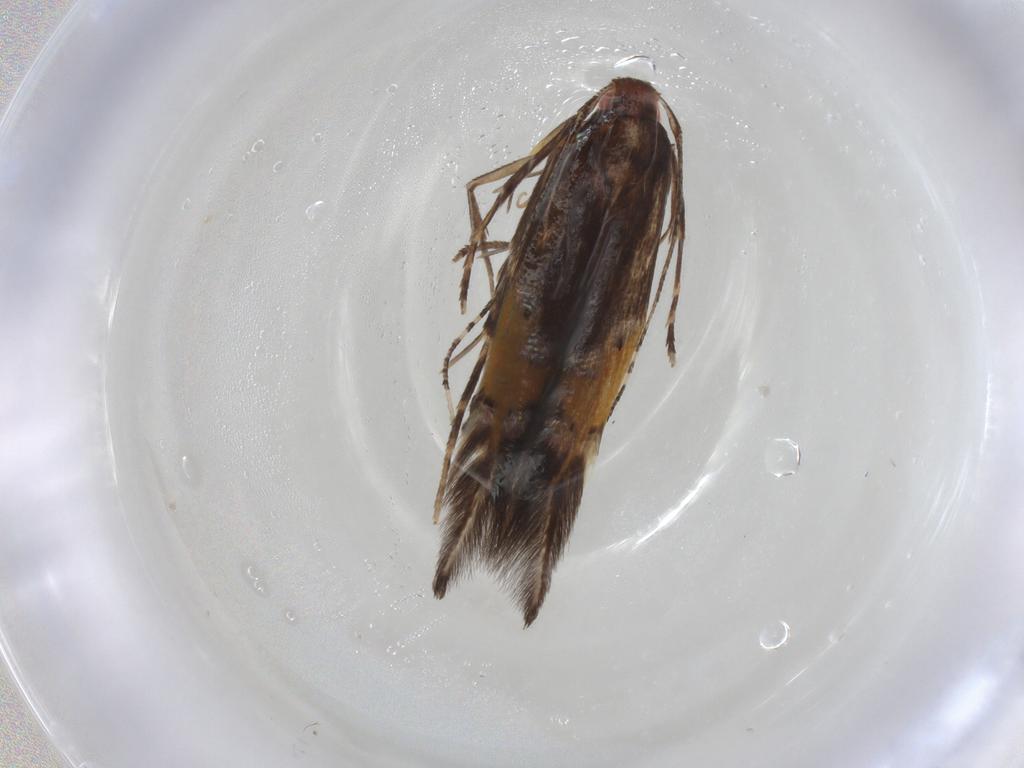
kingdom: Animalia
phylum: Arthropoda
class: Insecta
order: Lepidoptera
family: Cosmopterigidae
